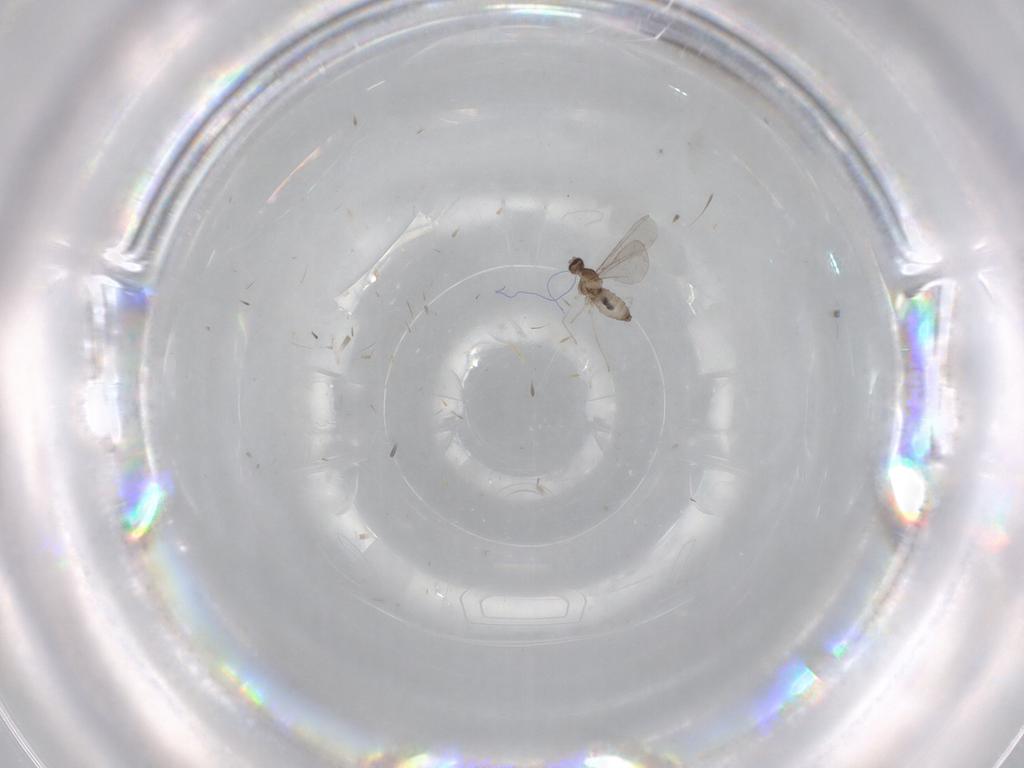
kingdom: Animalia
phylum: Arthropoda
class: Insecta
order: Diptera
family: Cecidomyiidae
